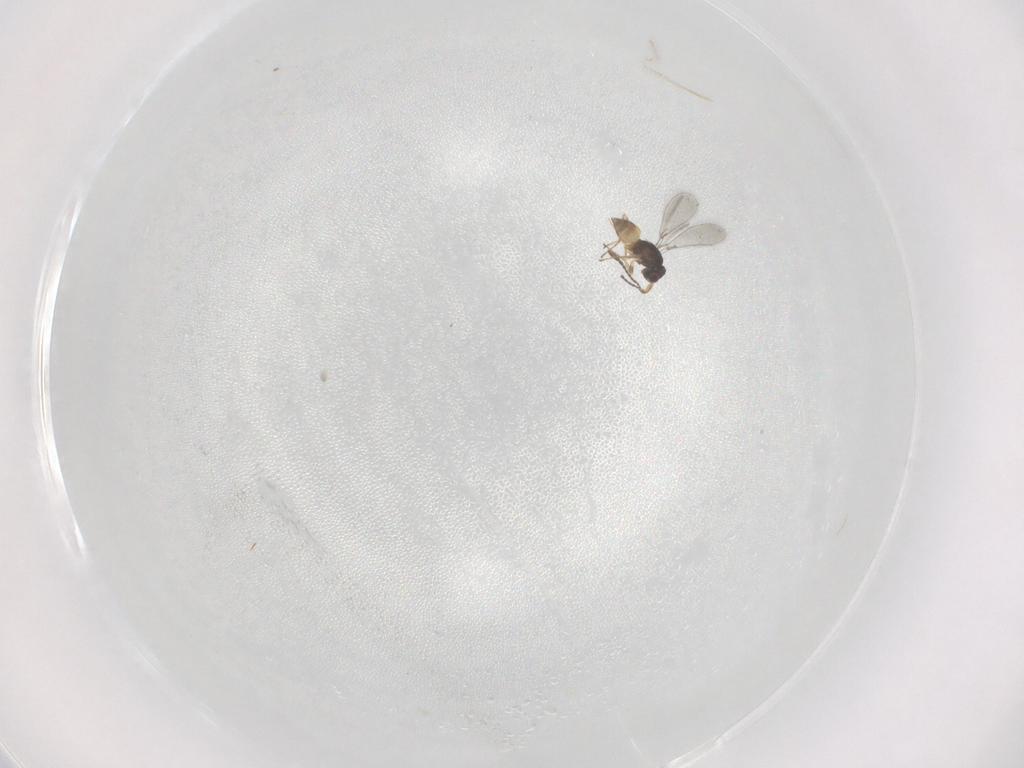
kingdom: Animalia
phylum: Arthropoda
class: Insecta
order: Hymenoptera
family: Mymaridae
